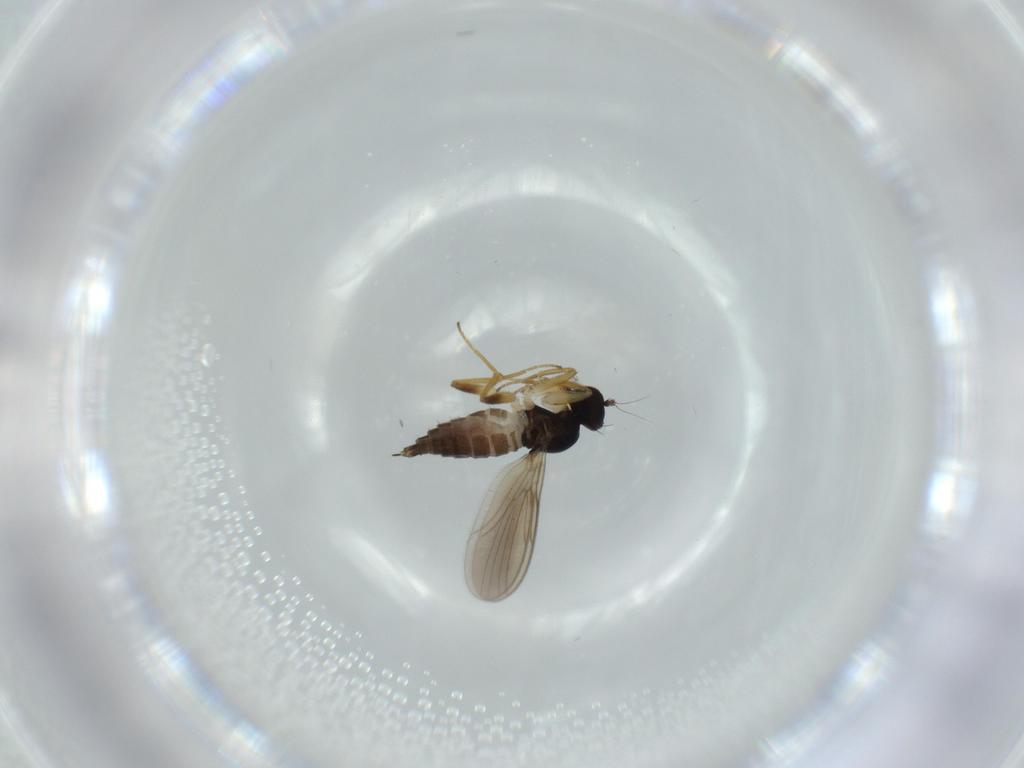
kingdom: Animalia
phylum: Arthropoda
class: Insecta
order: Diptera
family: Hybotidae
